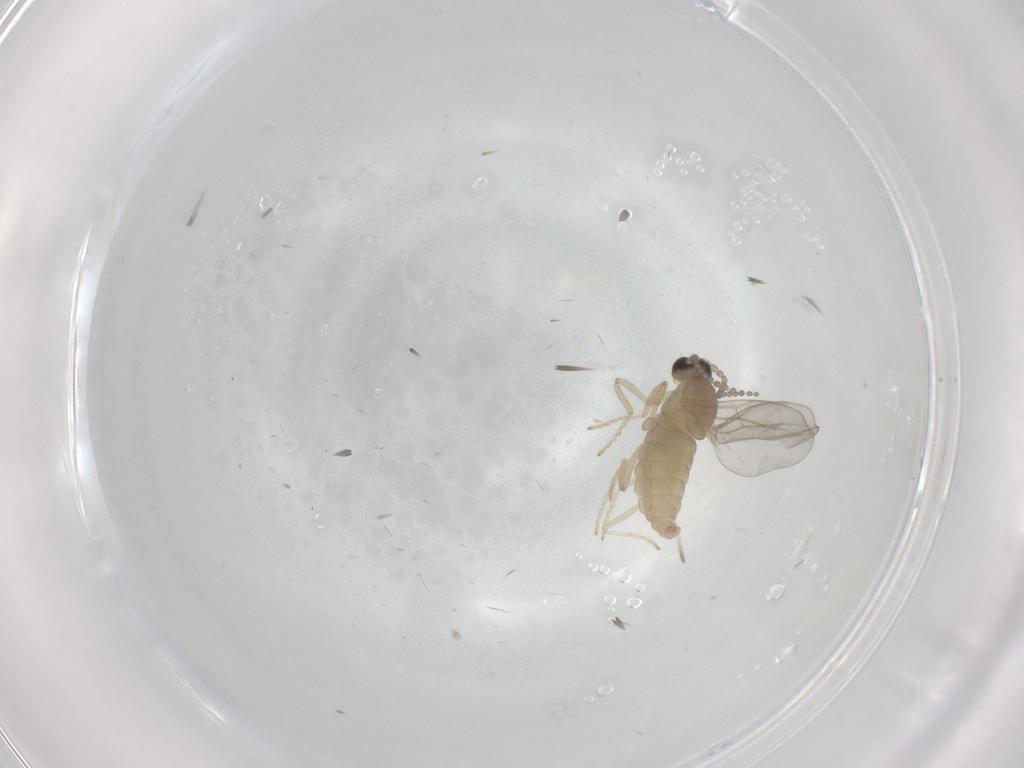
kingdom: Animalia
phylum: Arthropoda
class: Insecta
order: Diptera
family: Cecidomyiidae
